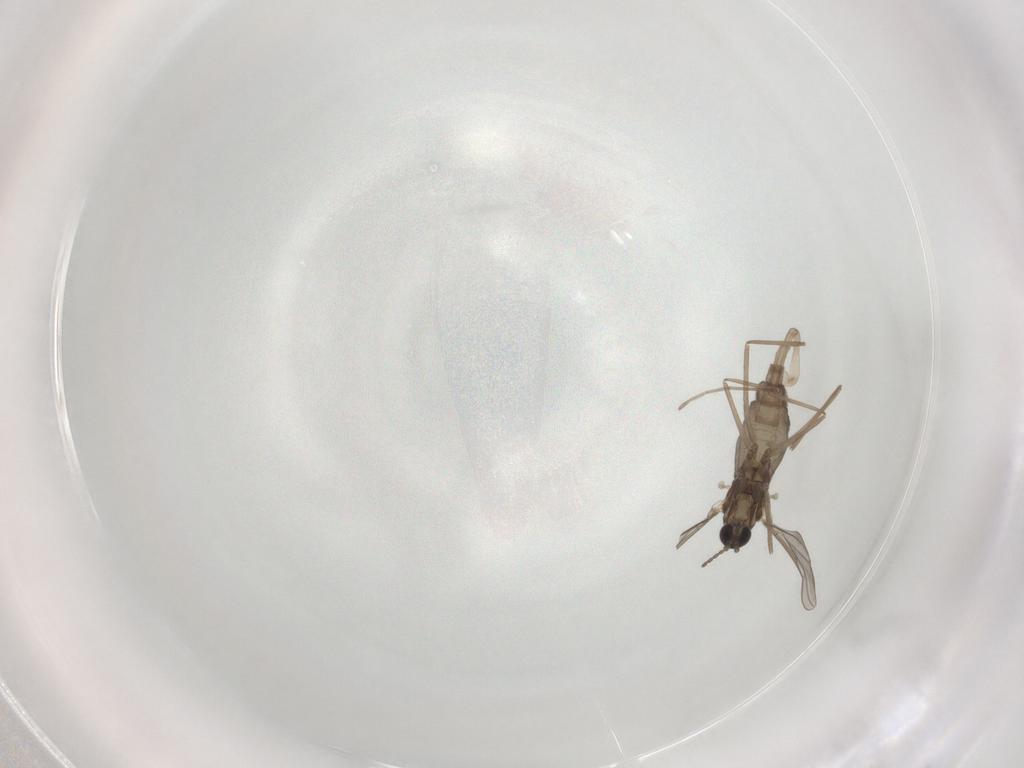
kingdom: Animalia
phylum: Arthropoda
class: Insecta
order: Diptera
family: Cecidomyiidae
